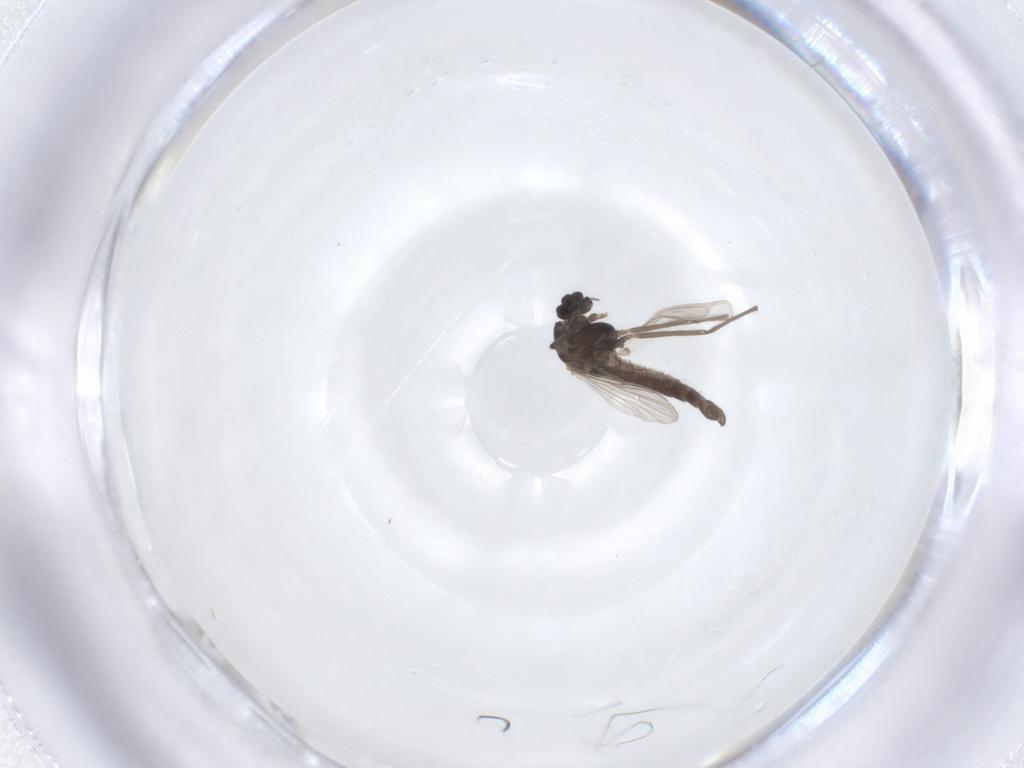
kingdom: Animalia
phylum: Arthropoda
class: Insecta
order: Diptera
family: Chironomidae
